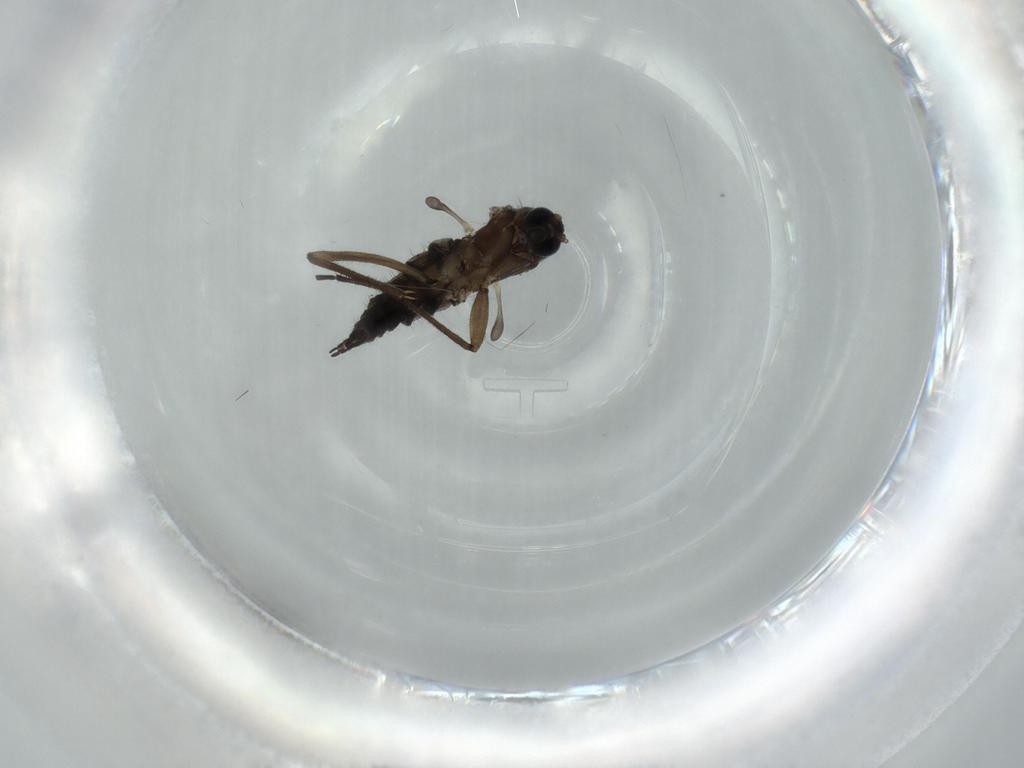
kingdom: Animalia
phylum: Arthropoda
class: Insecta
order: Diptera
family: Sciaridae
